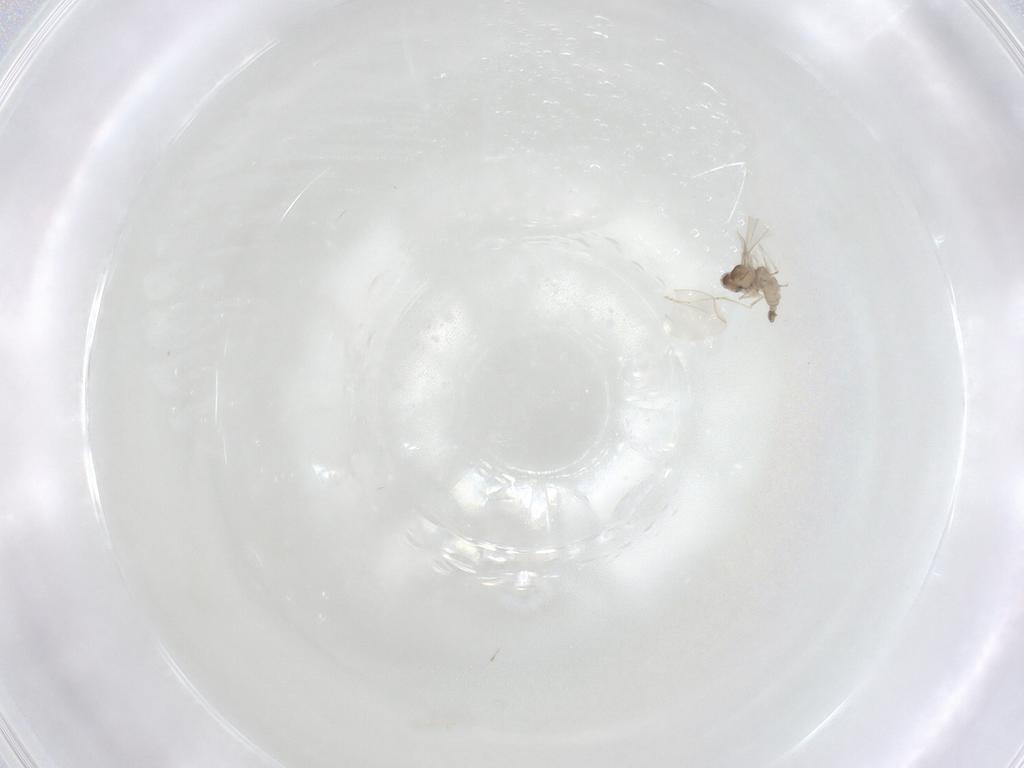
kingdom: Animalia
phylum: Arthropoda
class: Insecta
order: Diptera
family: Cecidomyiidae
